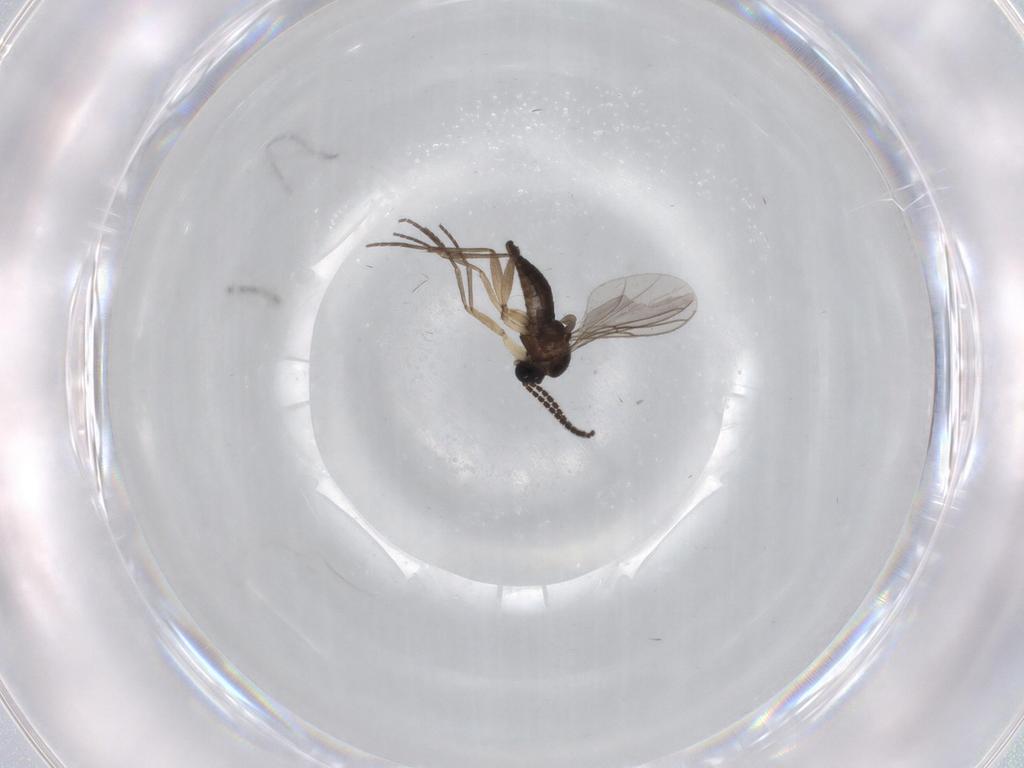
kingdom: Animalia
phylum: Arthropoda
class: Insecta
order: Diptera
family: Sciaridae
